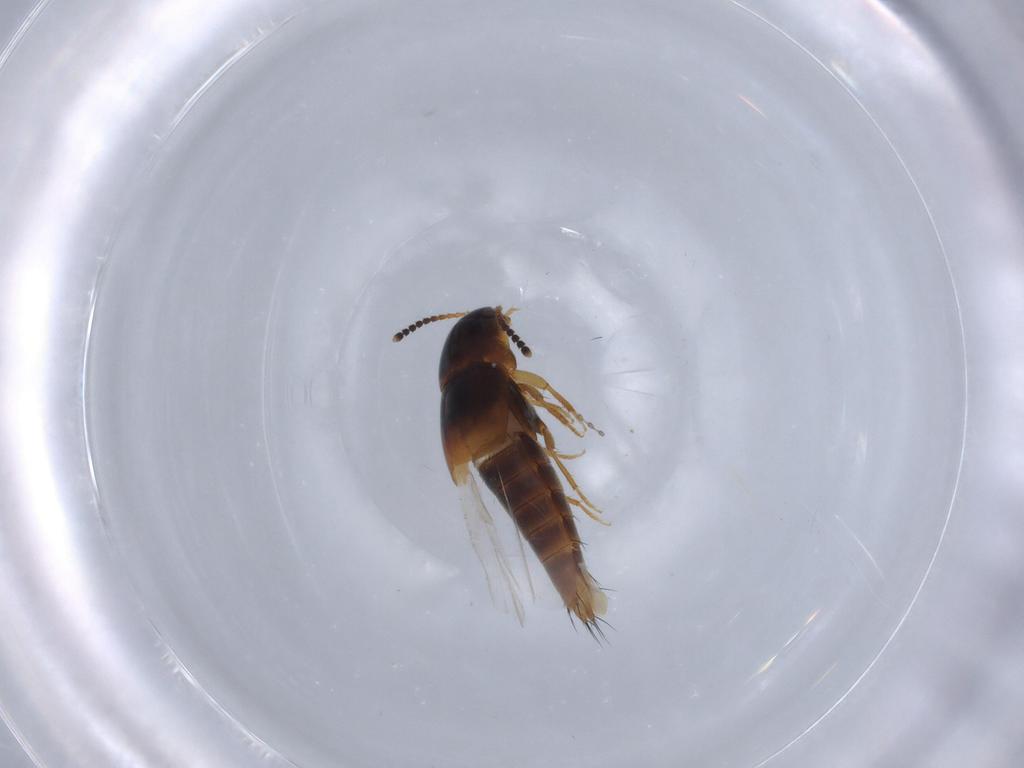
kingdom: Animalia
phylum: Arthropoda
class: Insecta
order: Coleoptera
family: Staphylinidae
